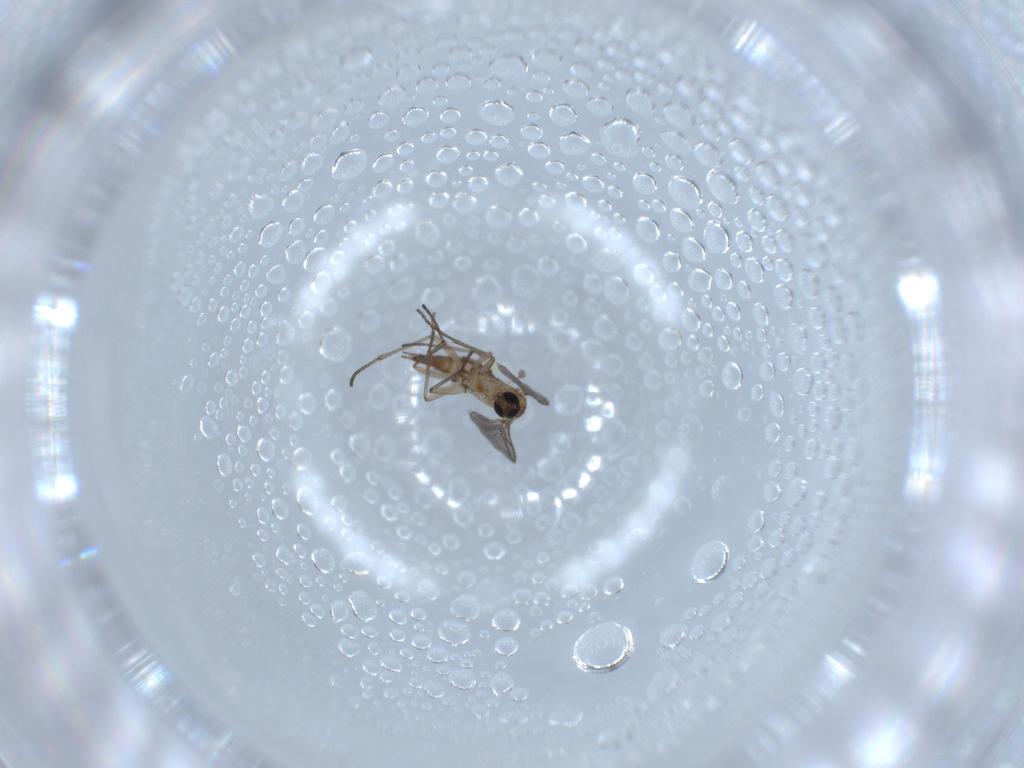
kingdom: Animalia
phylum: Arthropoda
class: Insecta
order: Diptera
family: Sciaridae
